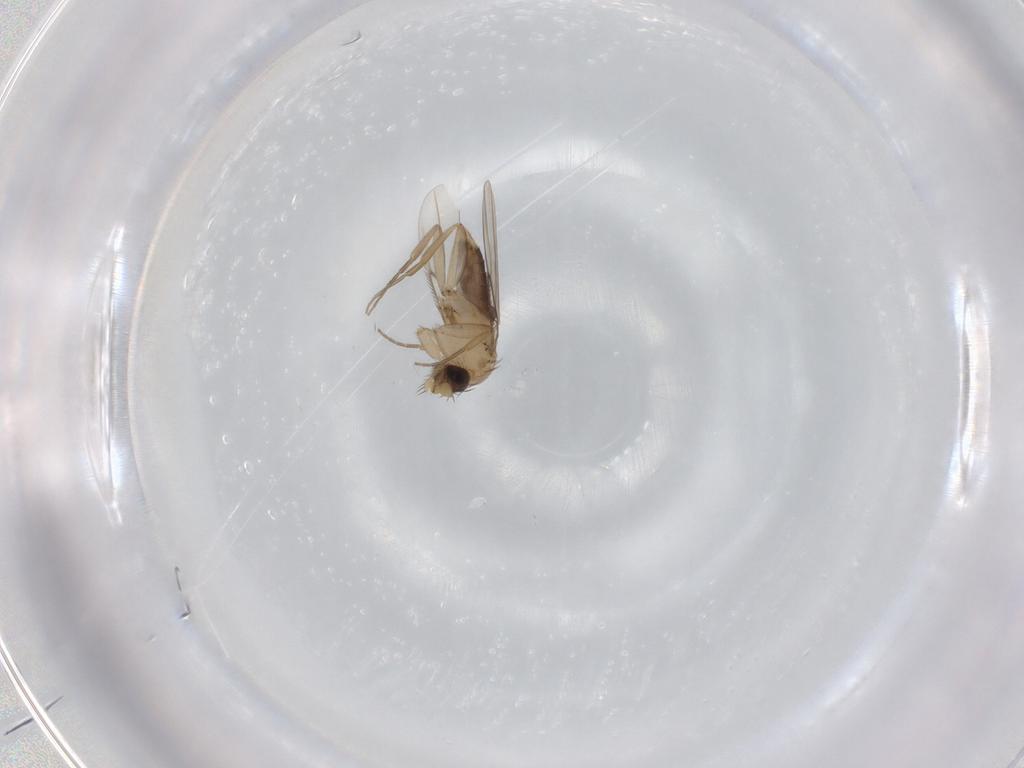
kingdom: Animalia
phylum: Arthropoda
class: Insecta
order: Diptera
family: Phoridae
